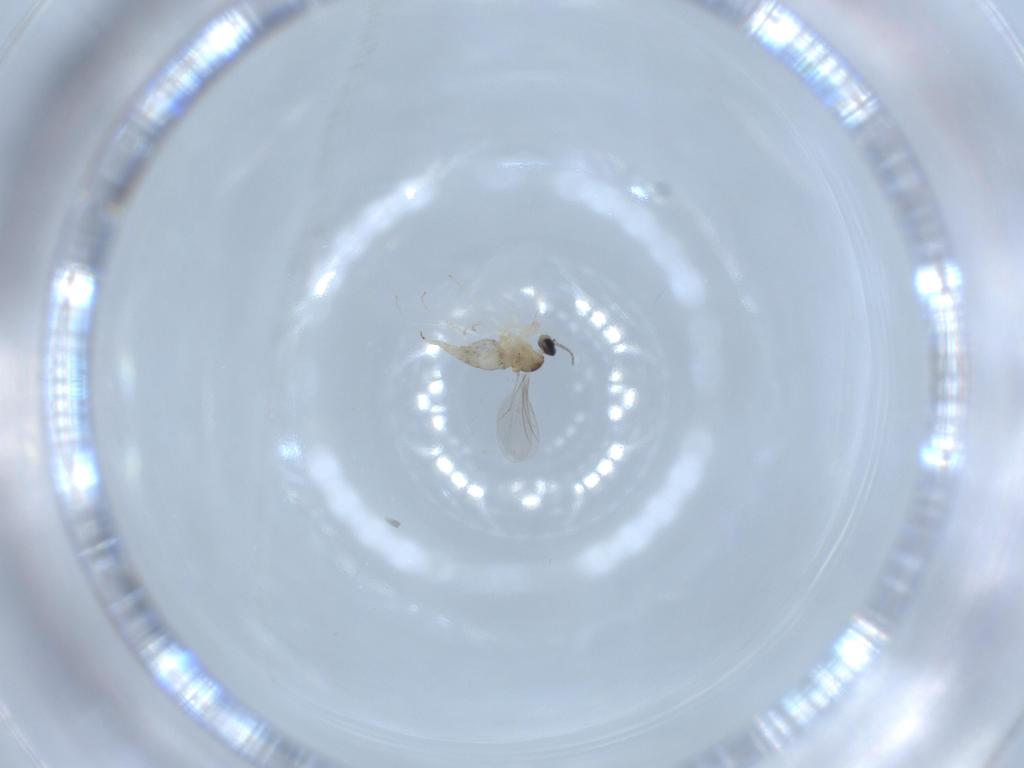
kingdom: Animalia
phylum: Arthropoda
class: Insecta
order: Diptera
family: Cecidomyiidae
